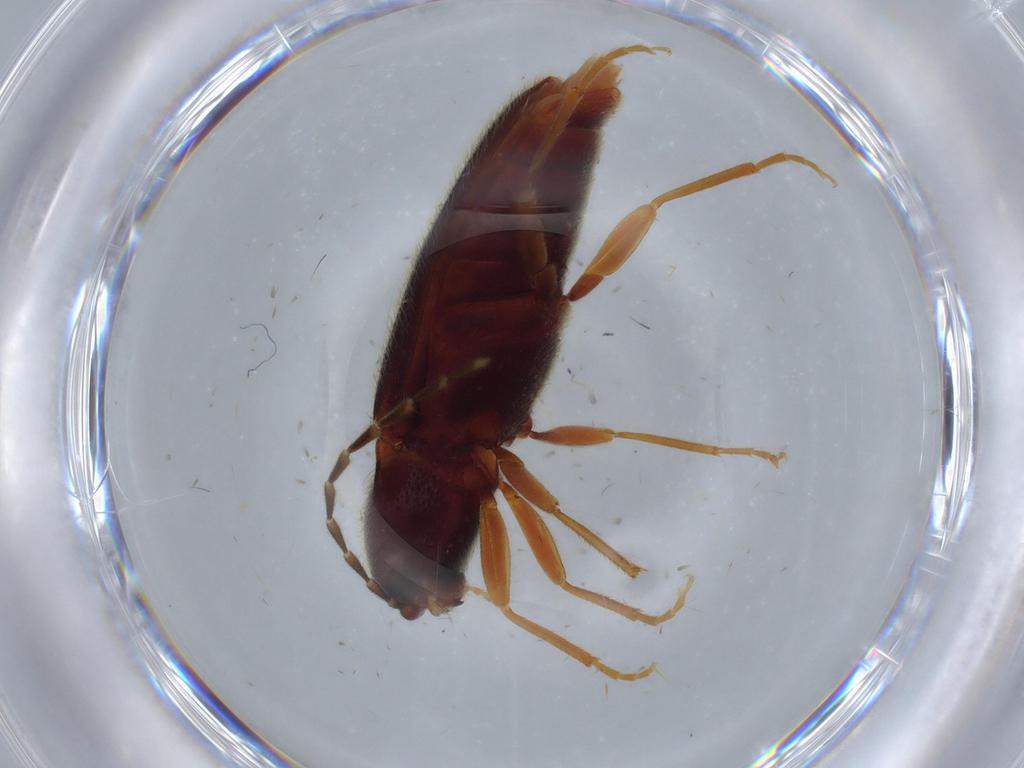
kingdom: Animalia
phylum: Arthropoda
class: Insecta
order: Coleoptera
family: Elateridae
